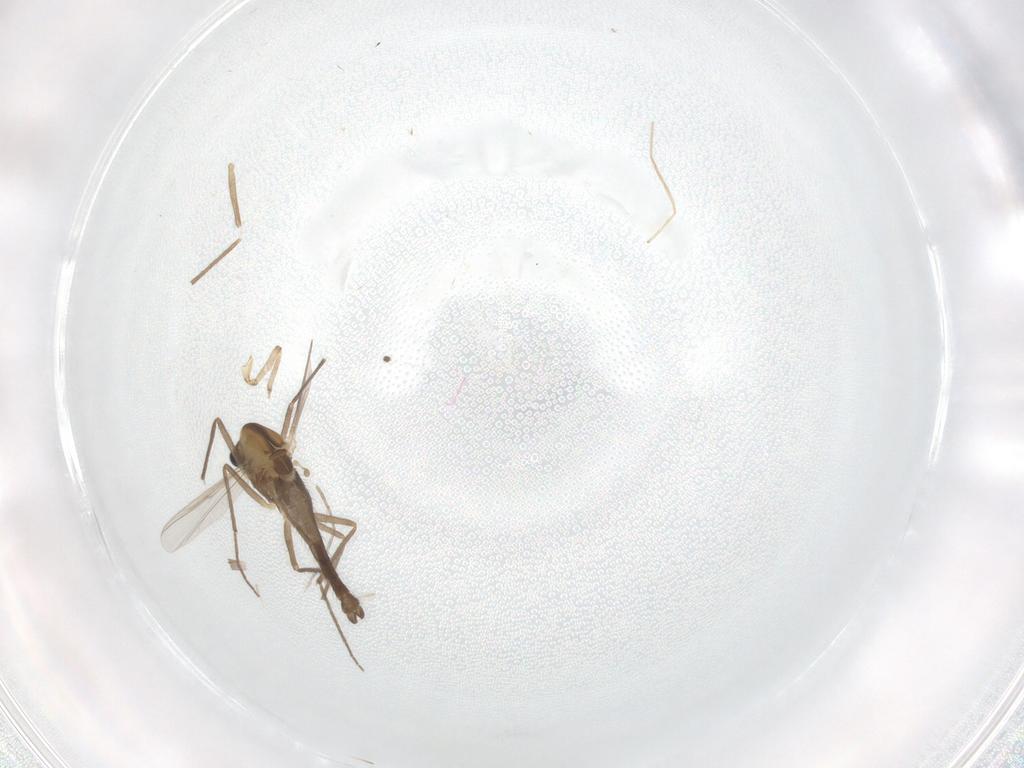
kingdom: Animalia
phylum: Arthropoda
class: Insecta
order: Diptera
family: Chironomidae
